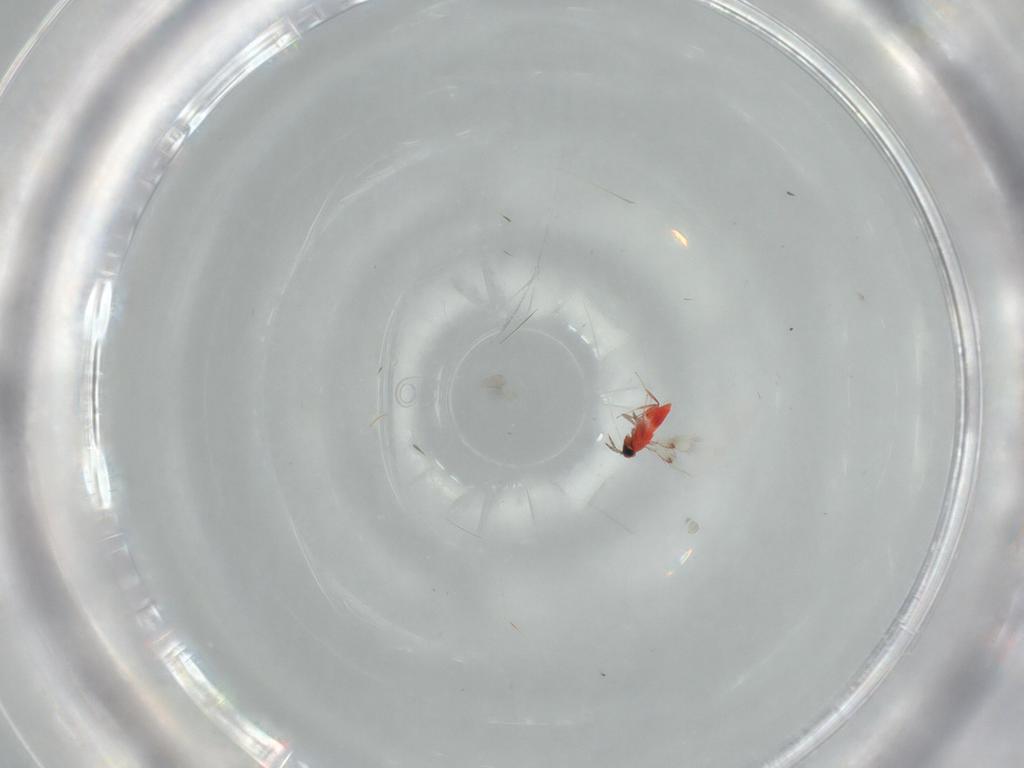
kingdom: Animalia
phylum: Arthropoda
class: Insecta
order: Hymenoptera
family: Trichogrammatidae
